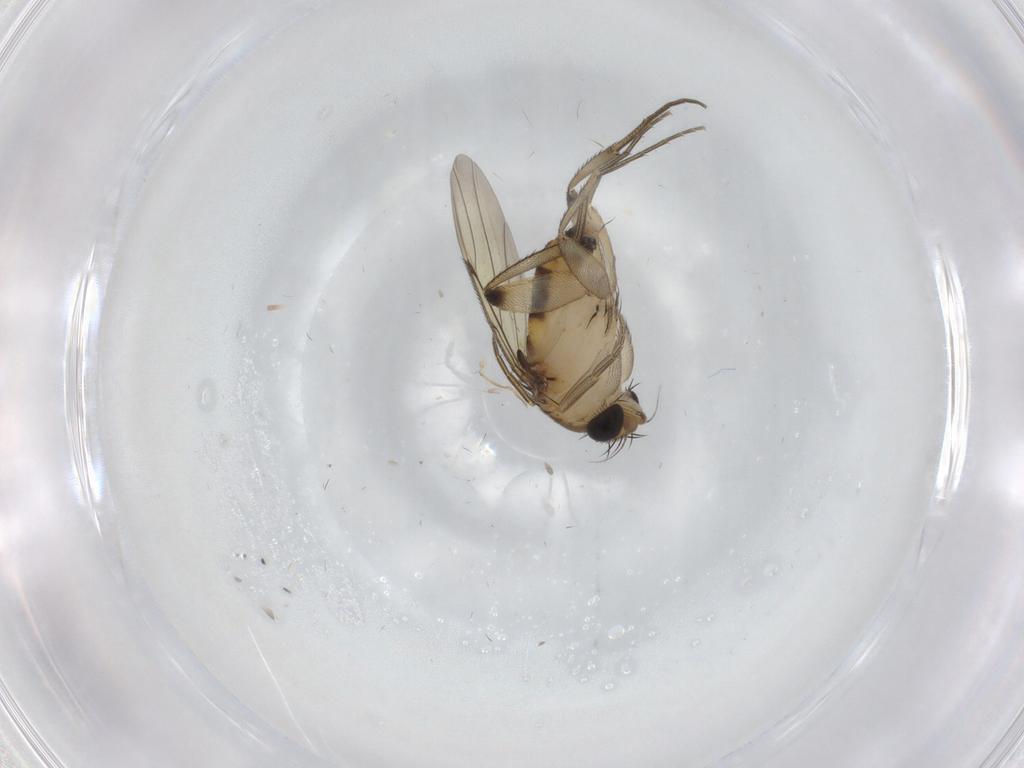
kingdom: Animalia
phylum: Arthropoda
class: Insecta
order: Diptera
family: Phoridae
